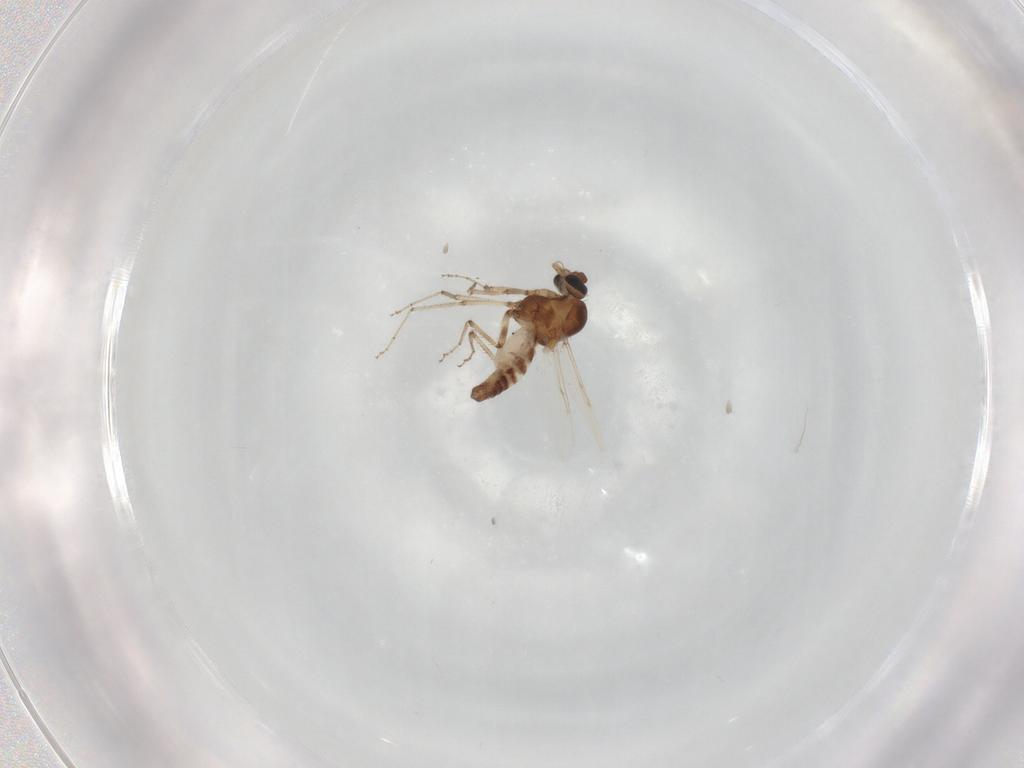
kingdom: Animalia
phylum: Arthropoda
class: Insecta
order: Diptera
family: Ceratopogonidae
